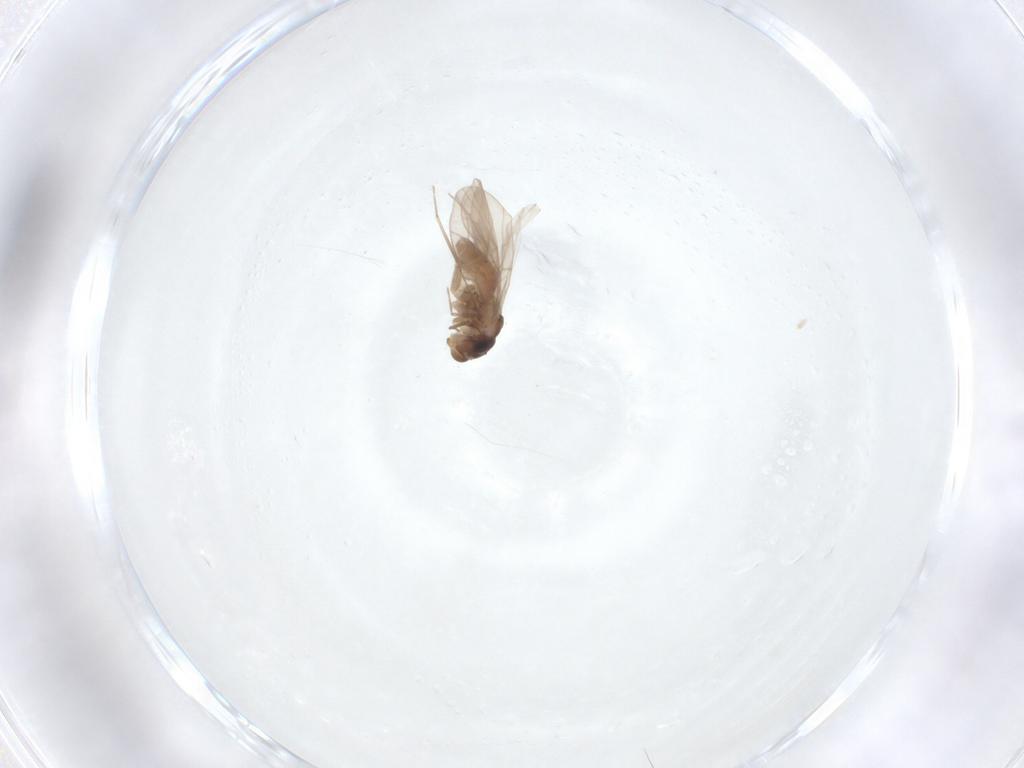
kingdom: Animalia
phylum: Arthropoda
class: Insecta
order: Psocodea
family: Lepidopsocidae
